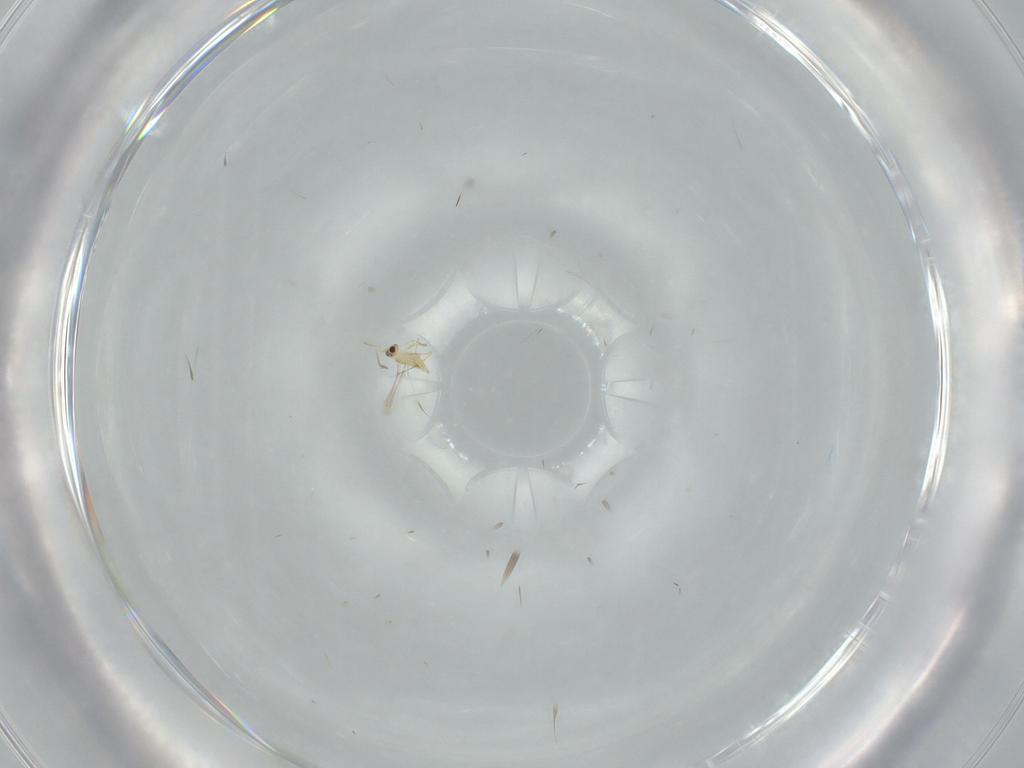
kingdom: Animalia
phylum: Arthropoda
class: Insecta
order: Hymenoptera
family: Mymaridae
